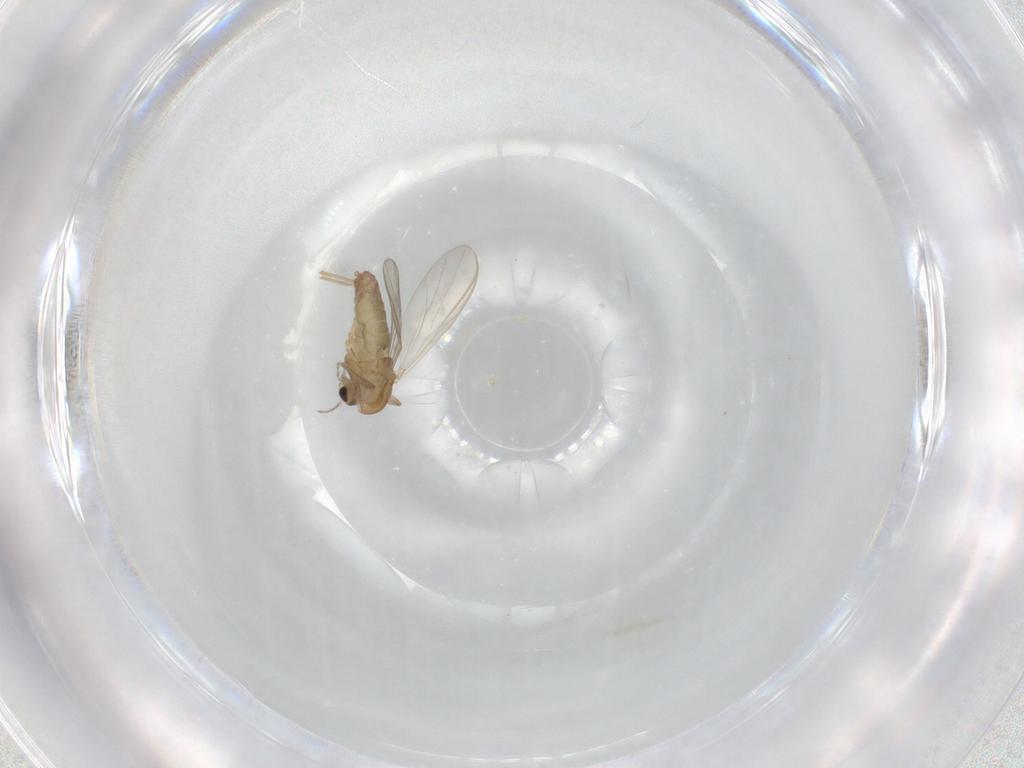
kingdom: Animalia
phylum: Arthropoda
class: Insecta
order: Diptera
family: Chironomidae
